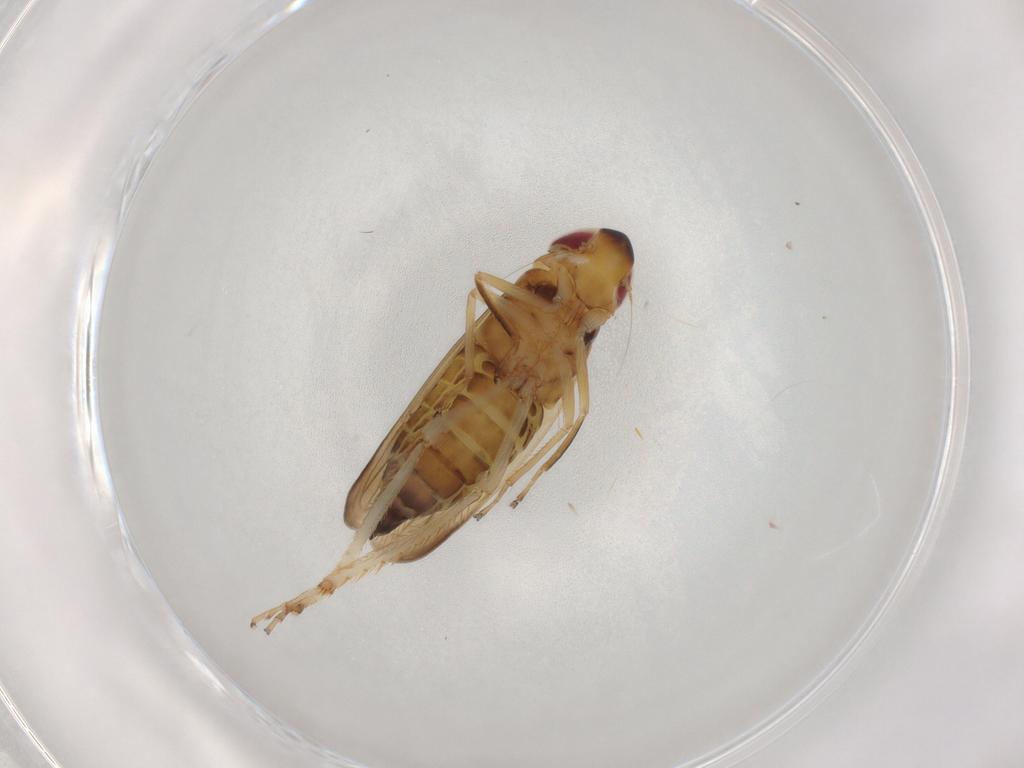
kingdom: Animalia
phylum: Arthropoda
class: Insecta
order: Hemiptera
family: Cicadellidae
